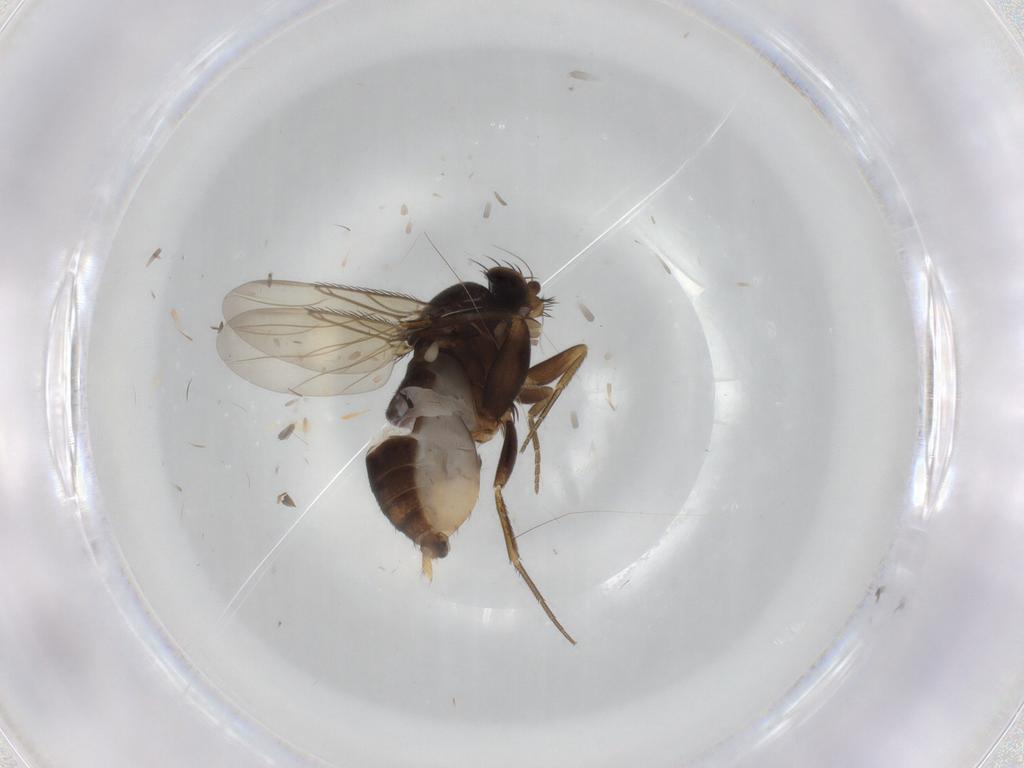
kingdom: Animalia
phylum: Arthropoda
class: Insecta
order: Diptera
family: Phoridae
